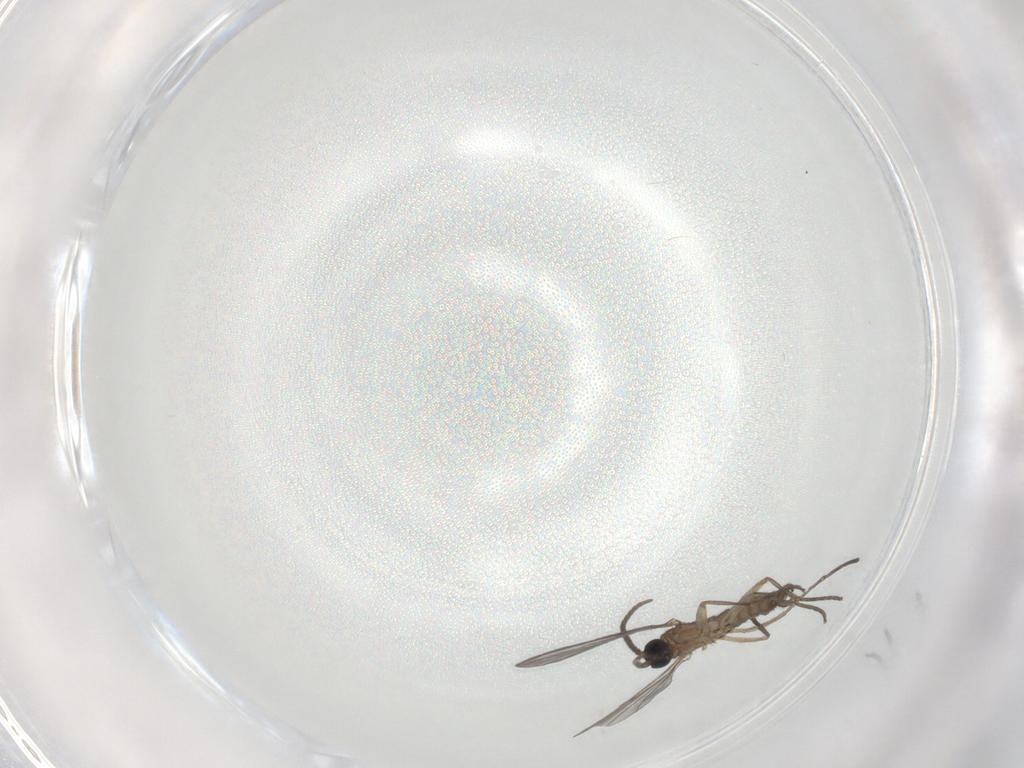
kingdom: Animalia
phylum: Arthropoda
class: Insecta
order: Diptera
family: Sciaridae
